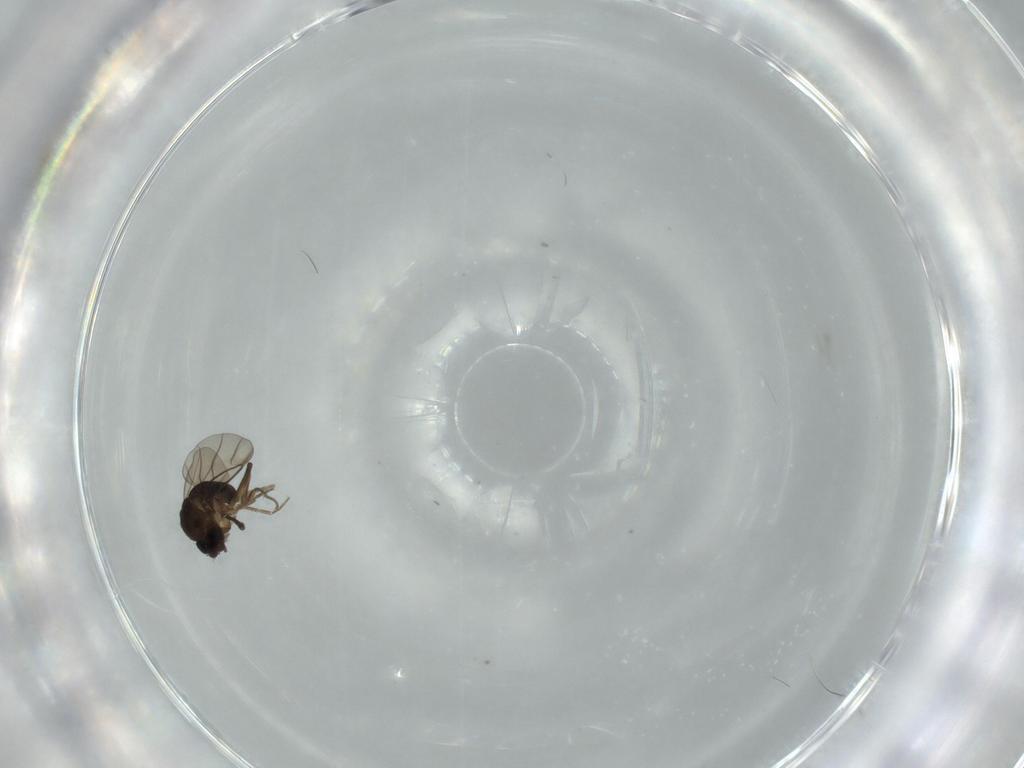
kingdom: Animalia
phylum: Arthropoda
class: Insecta
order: Diptera
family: Phoridae
